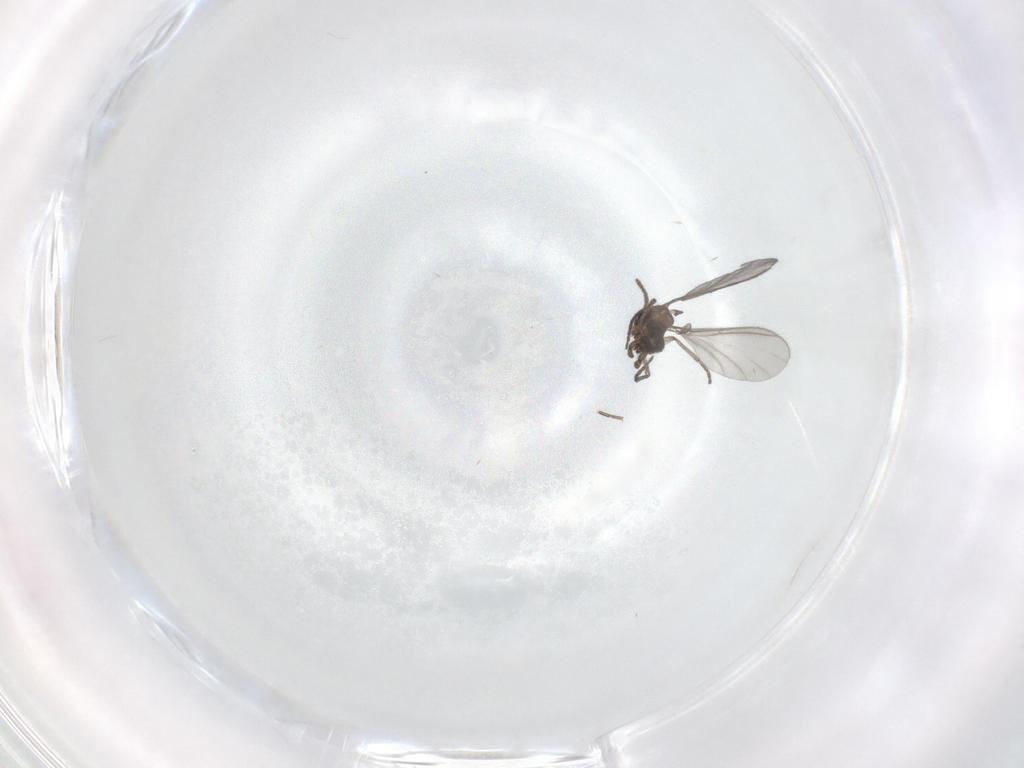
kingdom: Animalia
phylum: Arthropoda
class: Insecta
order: Diptera
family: Sciaridae
